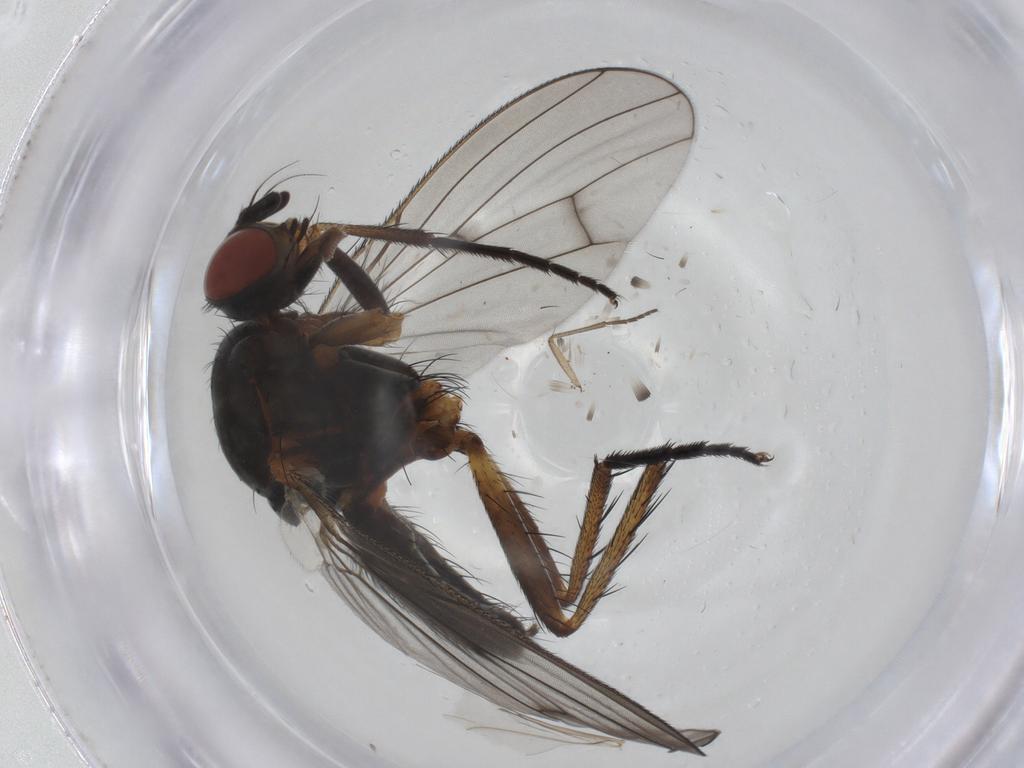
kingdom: Animalia
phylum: Arthropoda
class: Insecta
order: Diptera
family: Anthomyiidae
